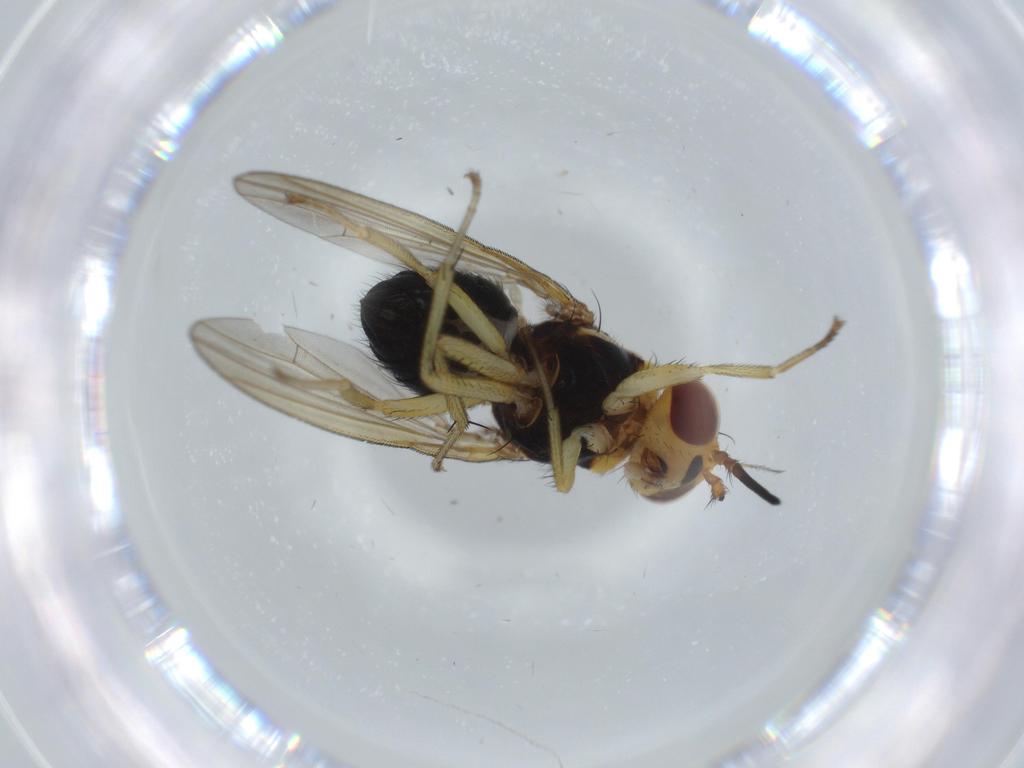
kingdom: Animalia
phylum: Arthropoda
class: Insecta
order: Diptera
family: Lauxaniidae
